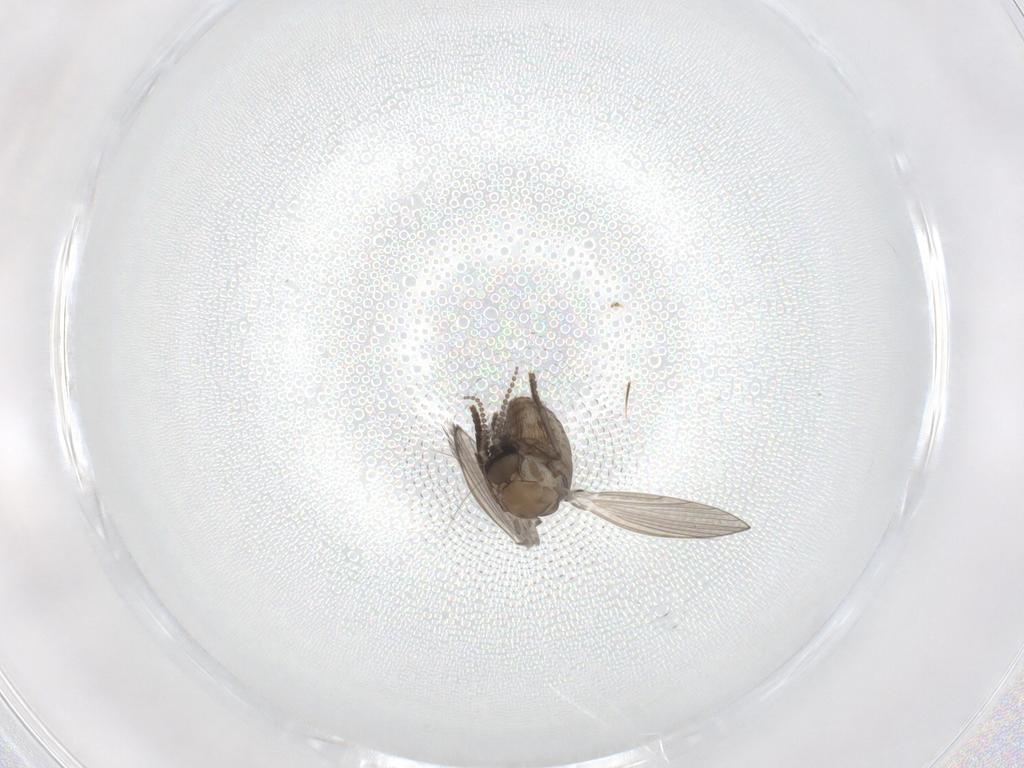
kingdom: Animalia
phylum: Arthropoda
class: Insecta
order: Diptera
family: Psychodidae
